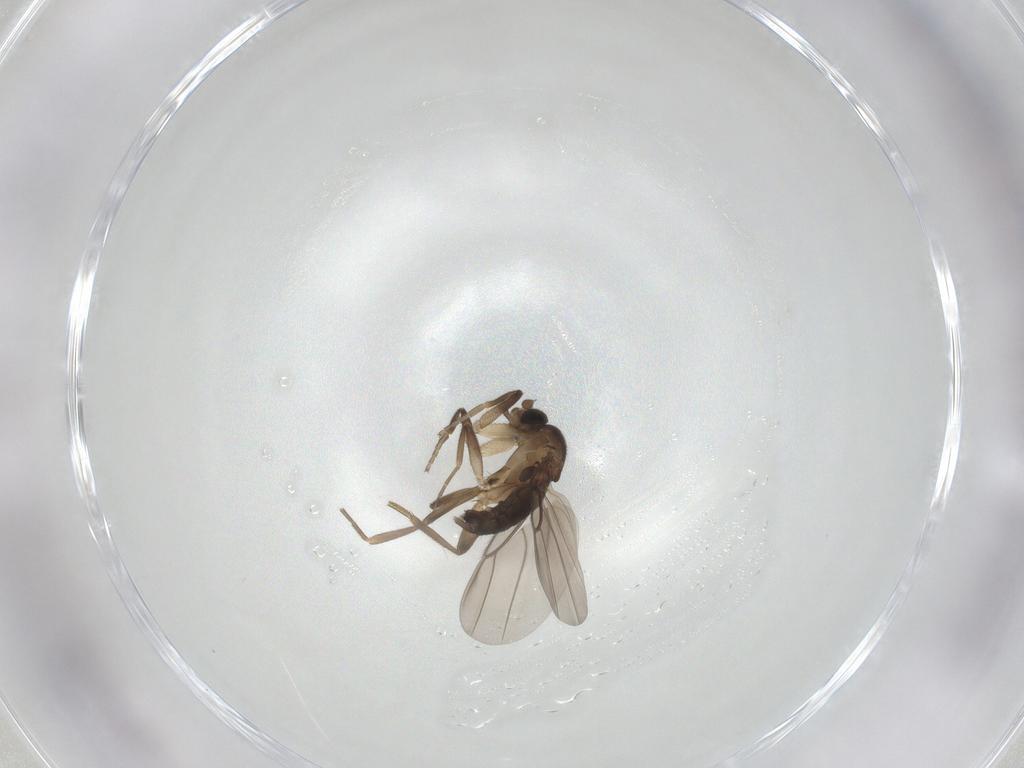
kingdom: Animalia
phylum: Arthropoda
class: Insecta
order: Diptera
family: Phoridae
